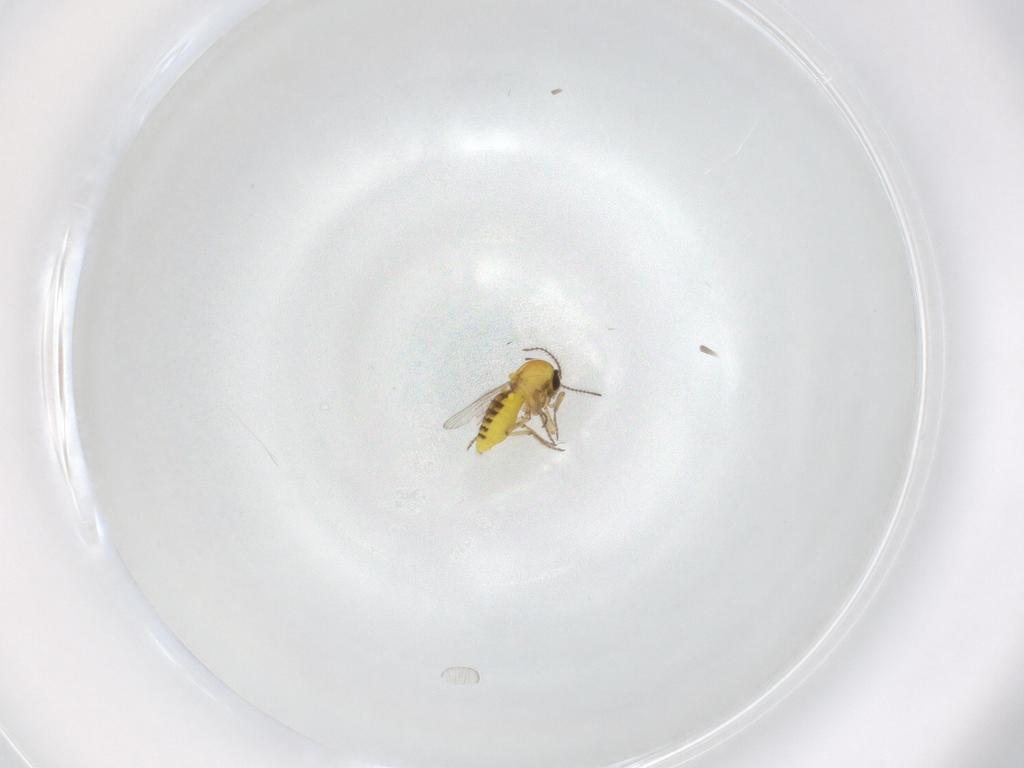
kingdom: Animalia
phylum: Arthropoda
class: Insecta
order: Diptera
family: Ceratopogonidae
